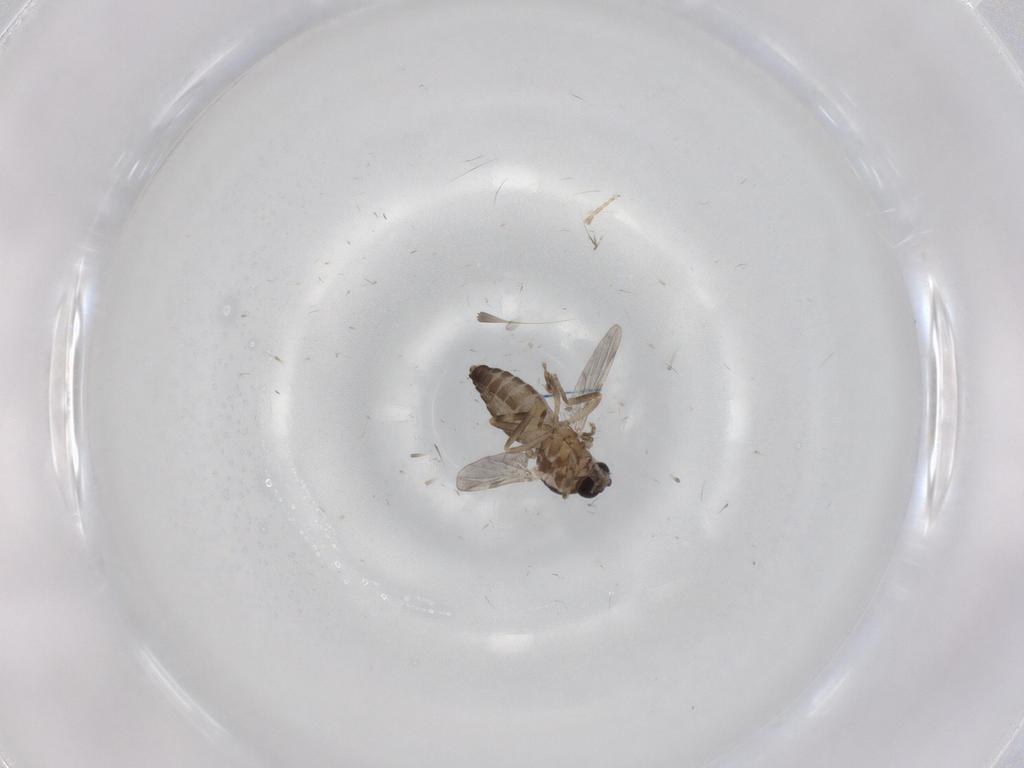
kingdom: Animalia
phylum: Arthropoda
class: Insecta
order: Diptera
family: Ceratopogonidae
